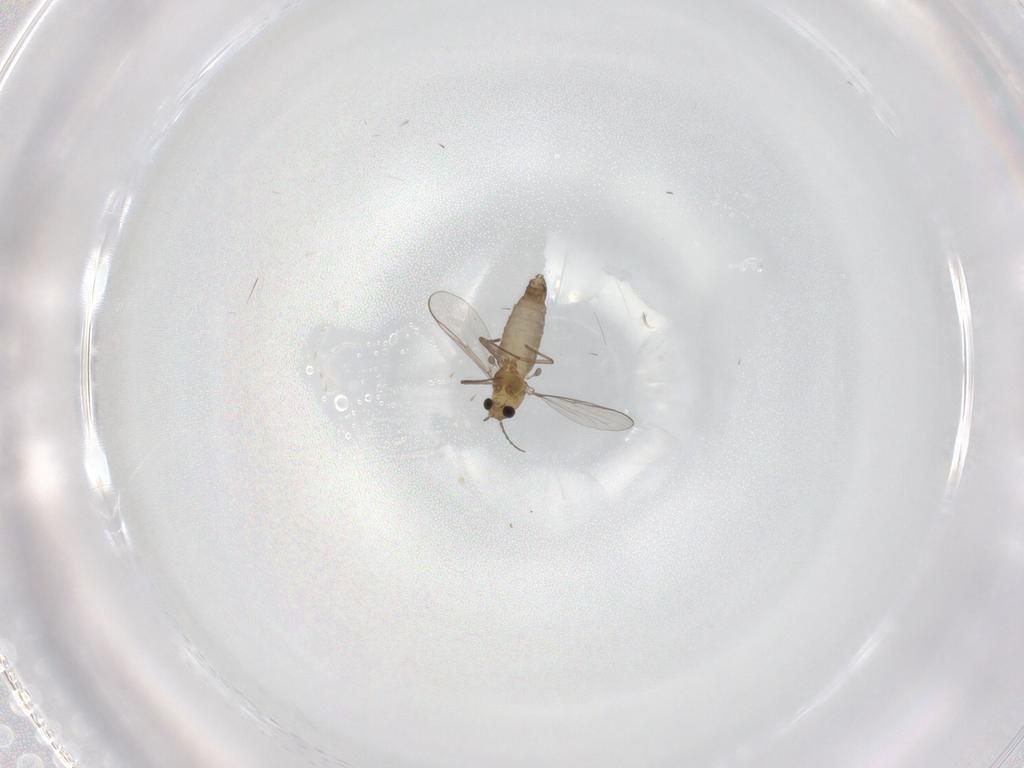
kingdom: Animalia
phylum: Arthropoda
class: Insecta
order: Diptera
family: Chironomidae
